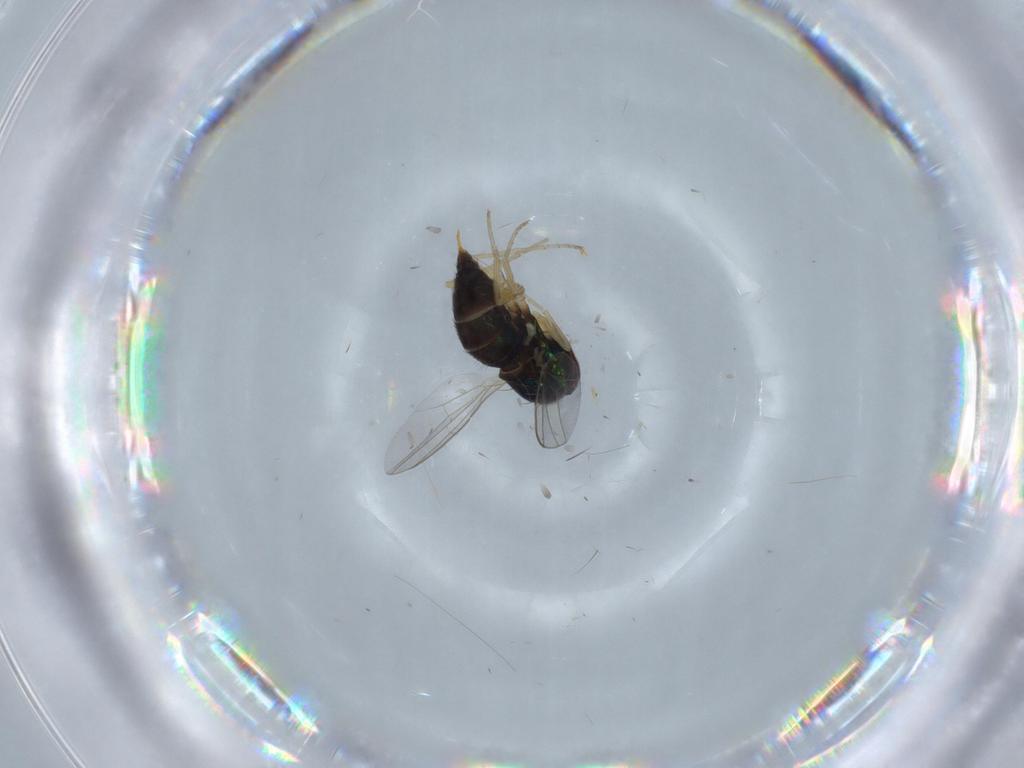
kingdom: Animalia
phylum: Arthropoda
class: Insecta
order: Diptera
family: Dolichopodidae
